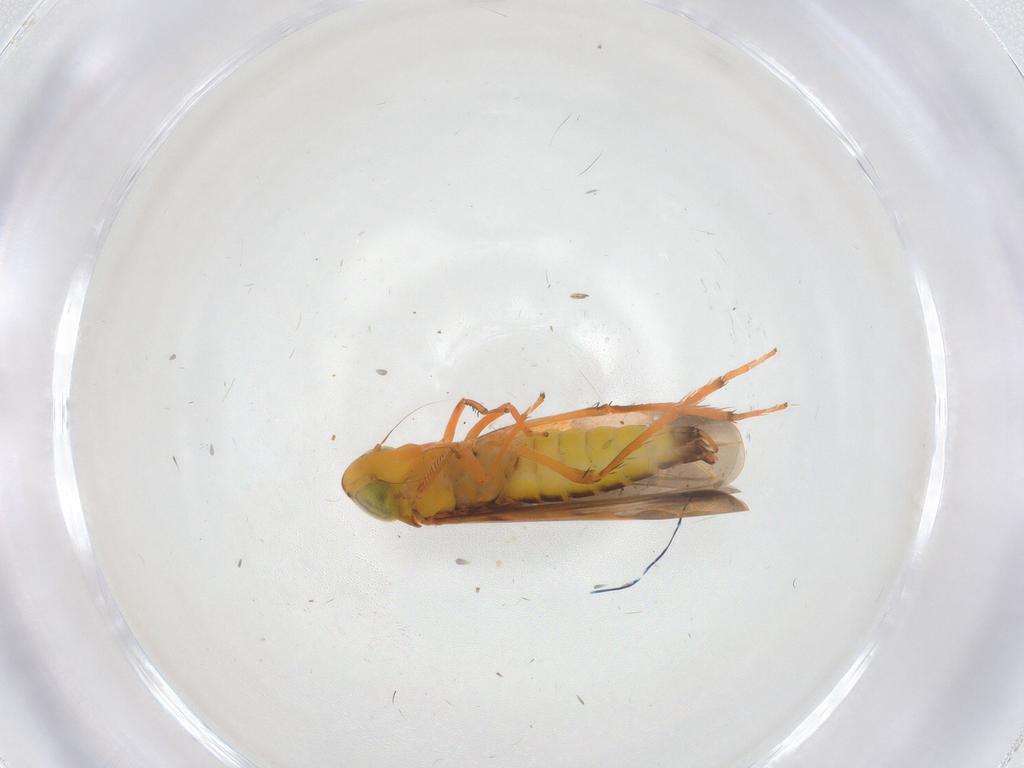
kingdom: Animalia
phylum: Arthropoda
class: Insecta
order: Hemiptera
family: Cicadellidae
